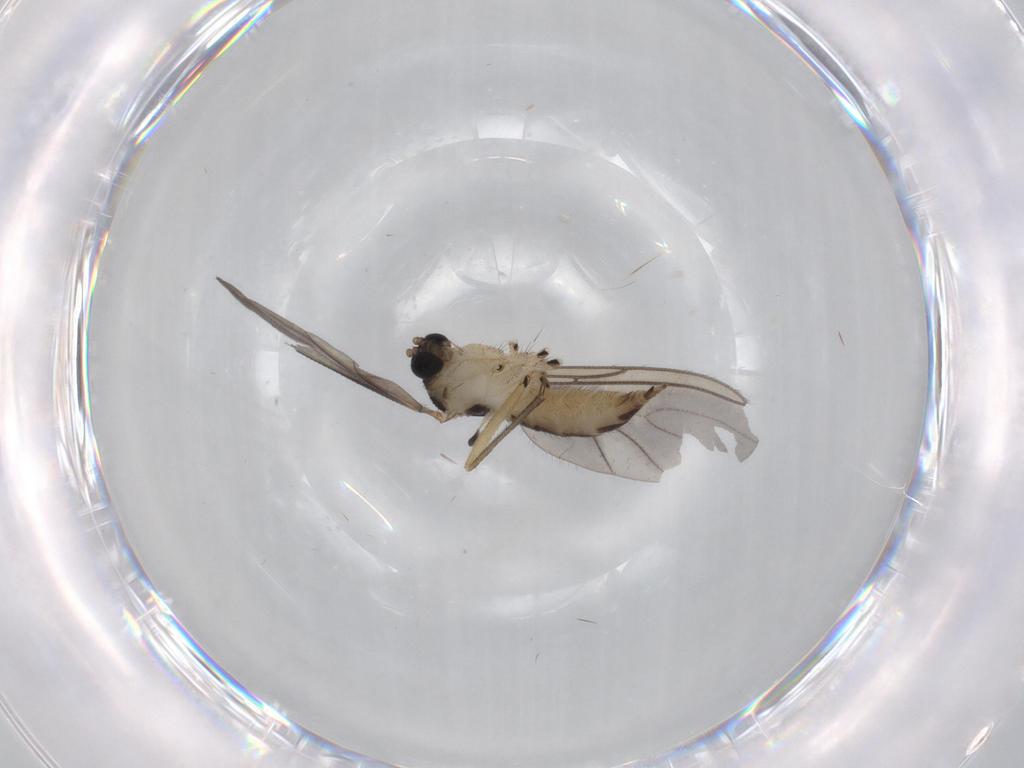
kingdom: Animalia
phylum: Arthropoda
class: Insecta
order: Diptera
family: Drosophilidae
